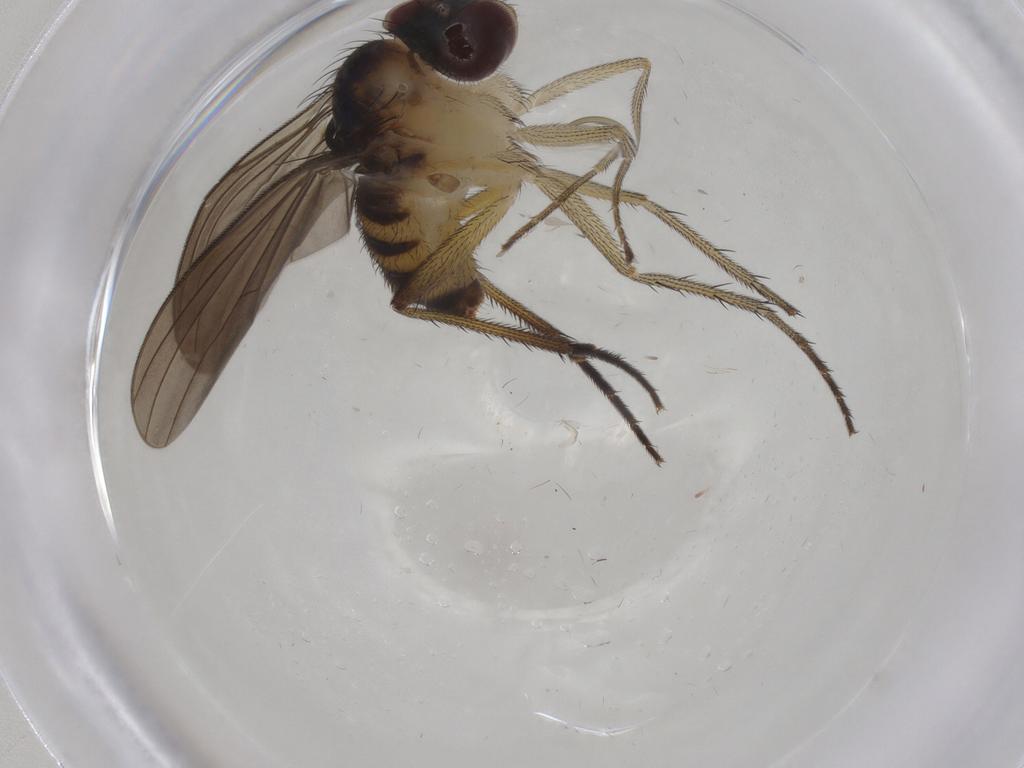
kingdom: Animalia
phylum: Arthropoda
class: Insecta
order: Diptera
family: Dolichopodidae
